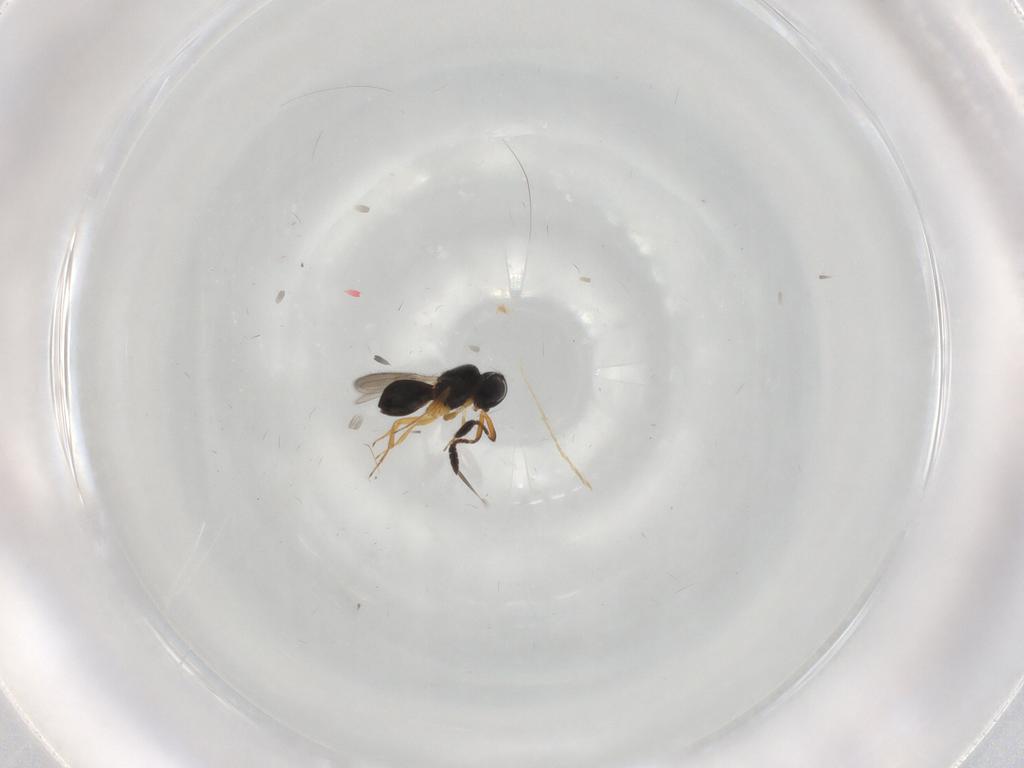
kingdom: Animalia
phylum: Arthropoda
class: Insecta
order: Hymenoptera
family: Scelionidae
